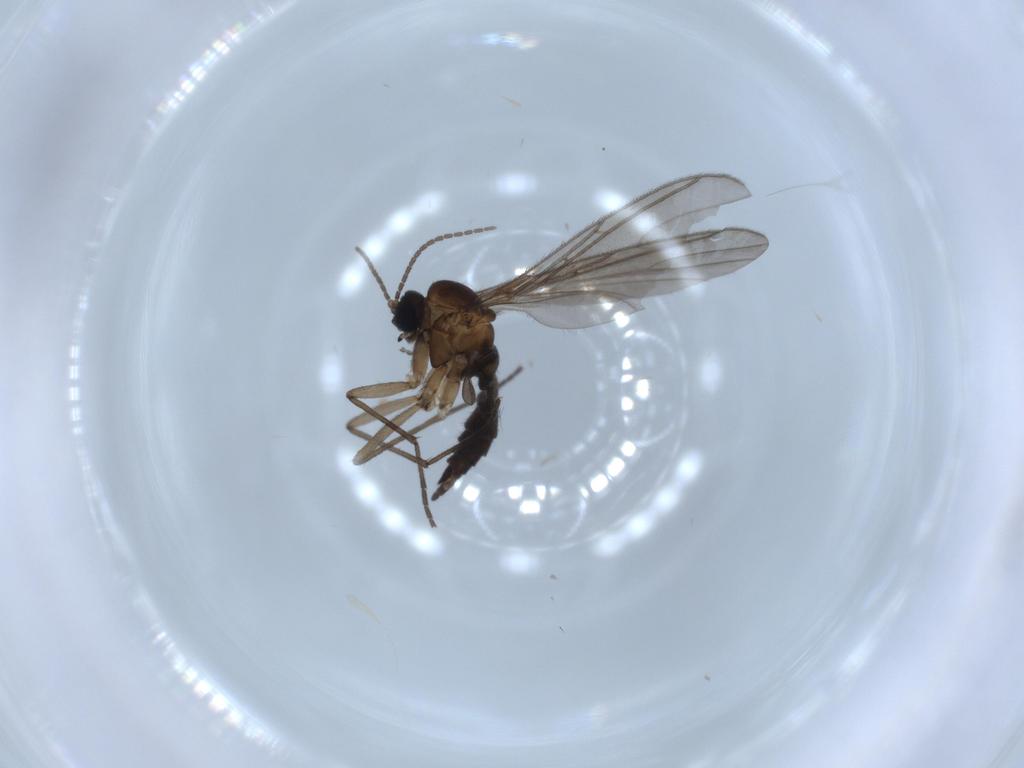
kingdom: Animalia
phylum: Arthropoda
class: Insecta
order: Diptera
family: Sciaridae
